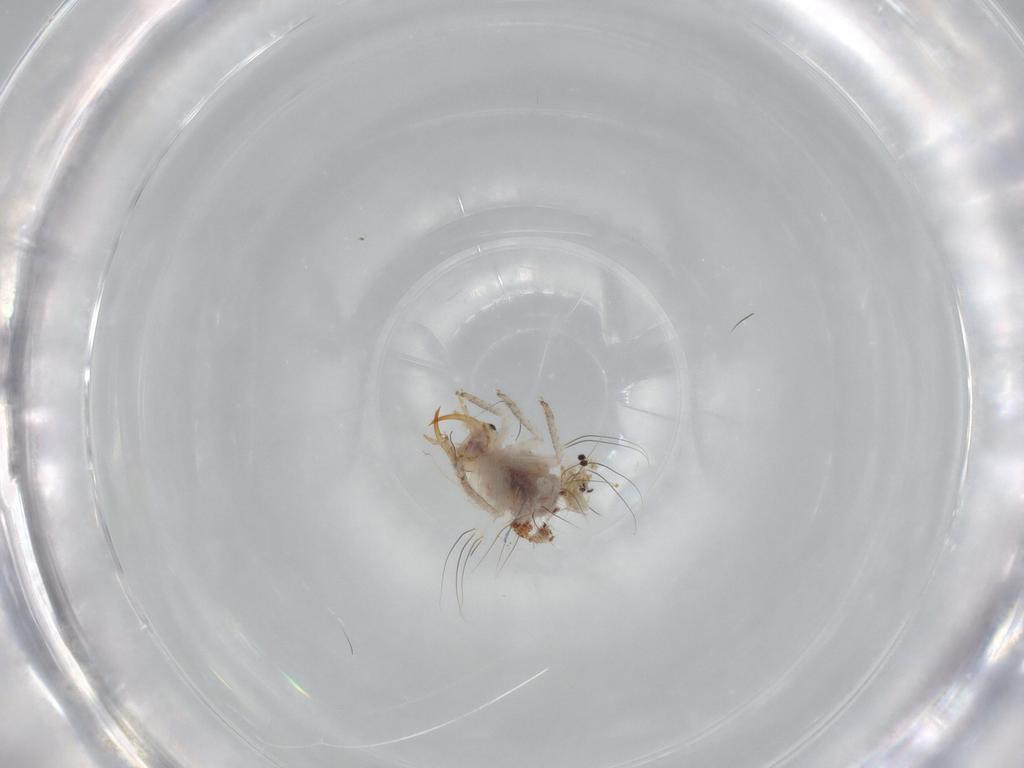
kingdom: Animalia
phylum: Arthropoda
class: Insecta
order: Neuroptera
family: Chrysopidae
